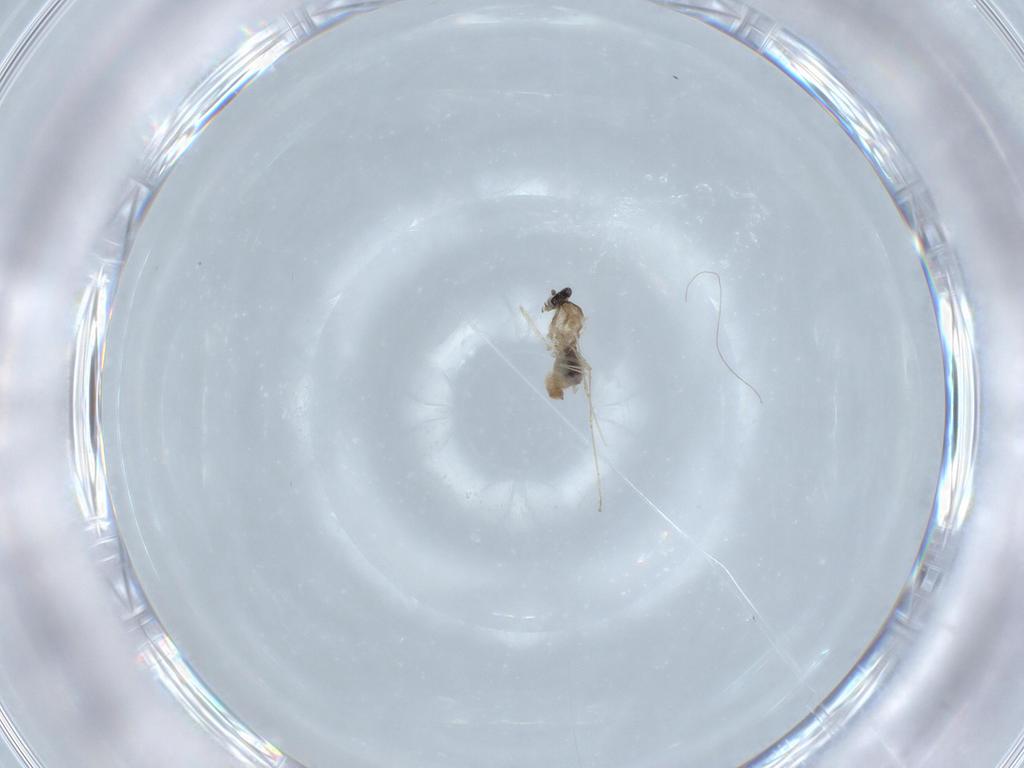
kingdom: Animalia
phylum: Arthropoda
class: Insecta
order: Diptera
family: Cecidomyiidae
